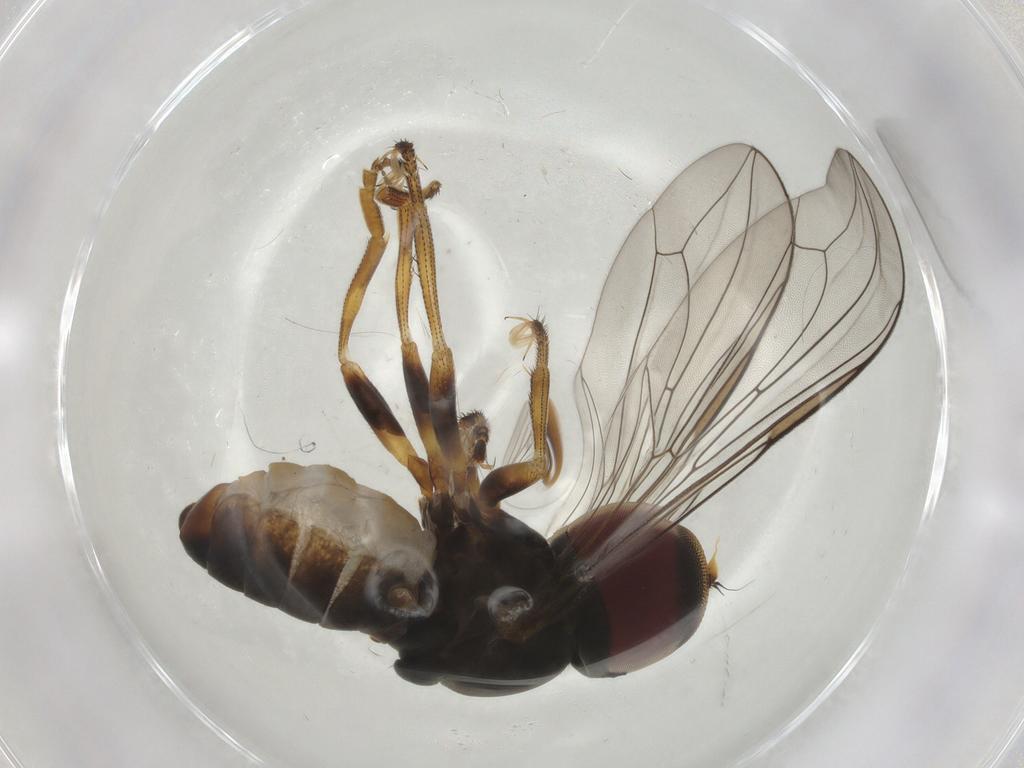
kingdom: Animalia
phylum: Arthropoda
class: Insecta
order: Diptera
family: Pipunculidae
